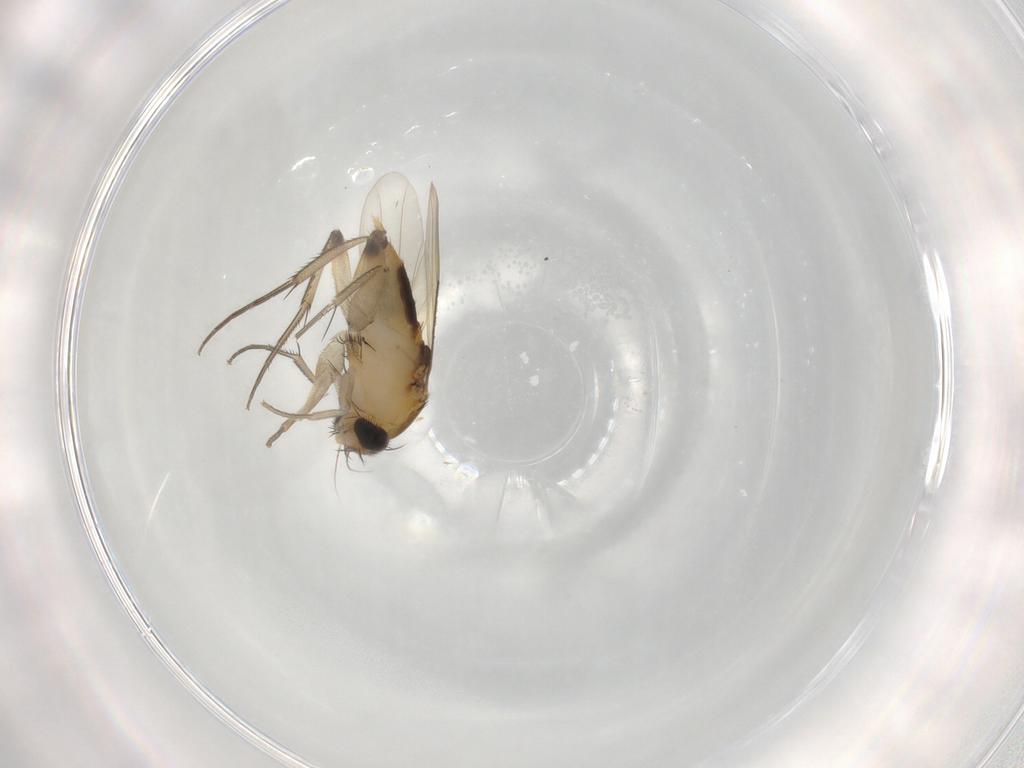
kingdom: Animalia
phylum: Arthropoda
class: Insecta
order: Diptera
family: Phoridae
